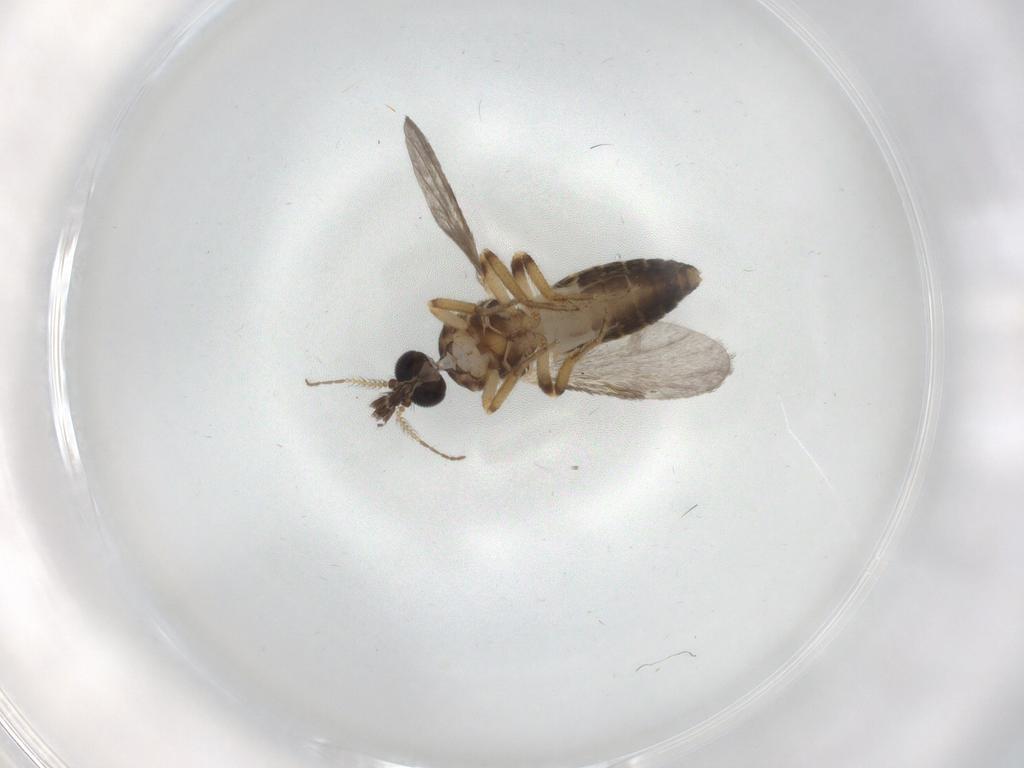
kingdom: Animalia
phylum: Arthropoda
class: Insecta
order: Diptera
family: Ceratopogonidae
